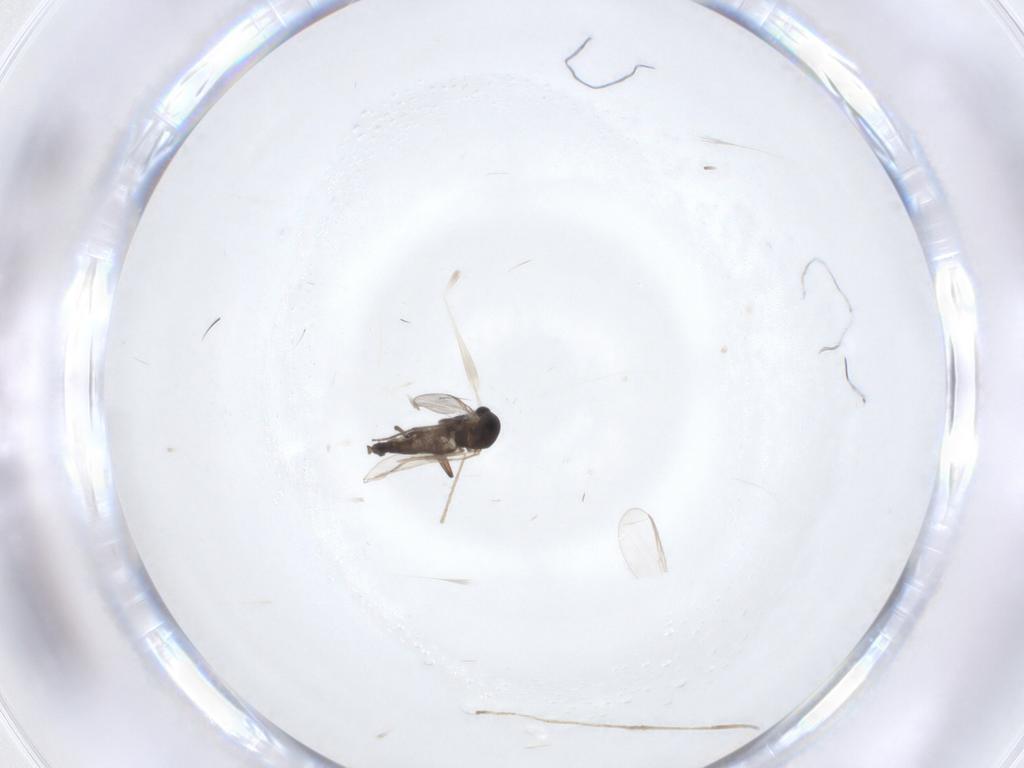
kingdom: Animalia
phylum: Arthropoda
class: Insecta
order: Diptera
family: Chironomidae
